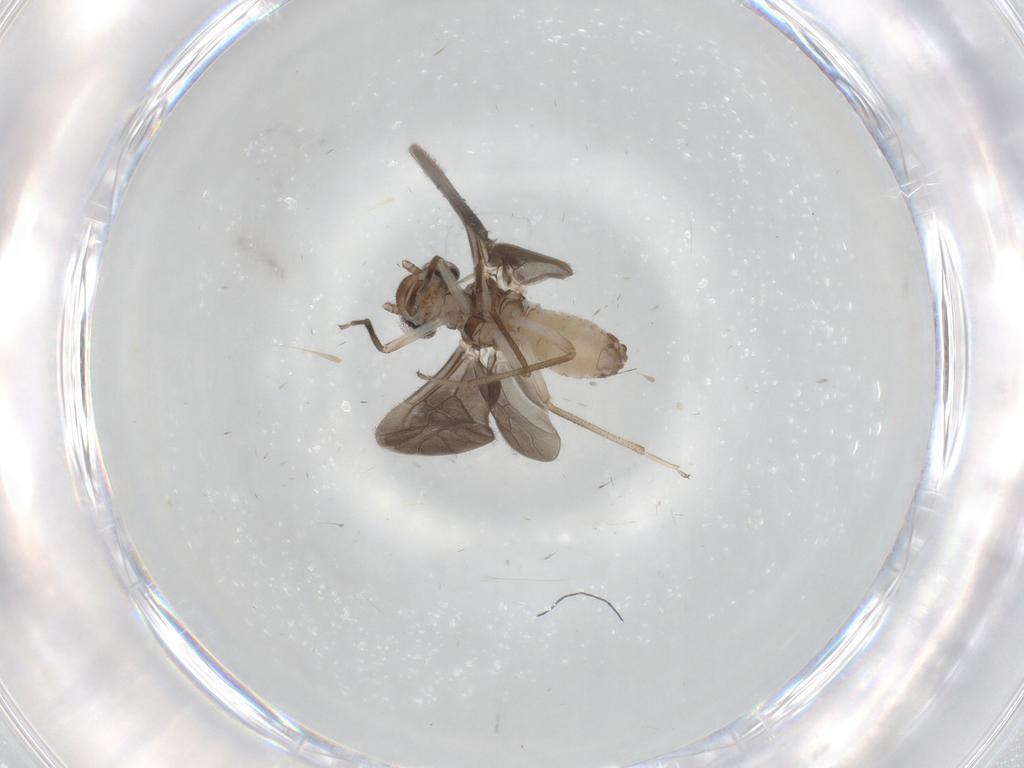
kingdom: Animalia
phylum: Arthropoda
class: Insecta
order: Psocodea
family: Caeciliusidae
